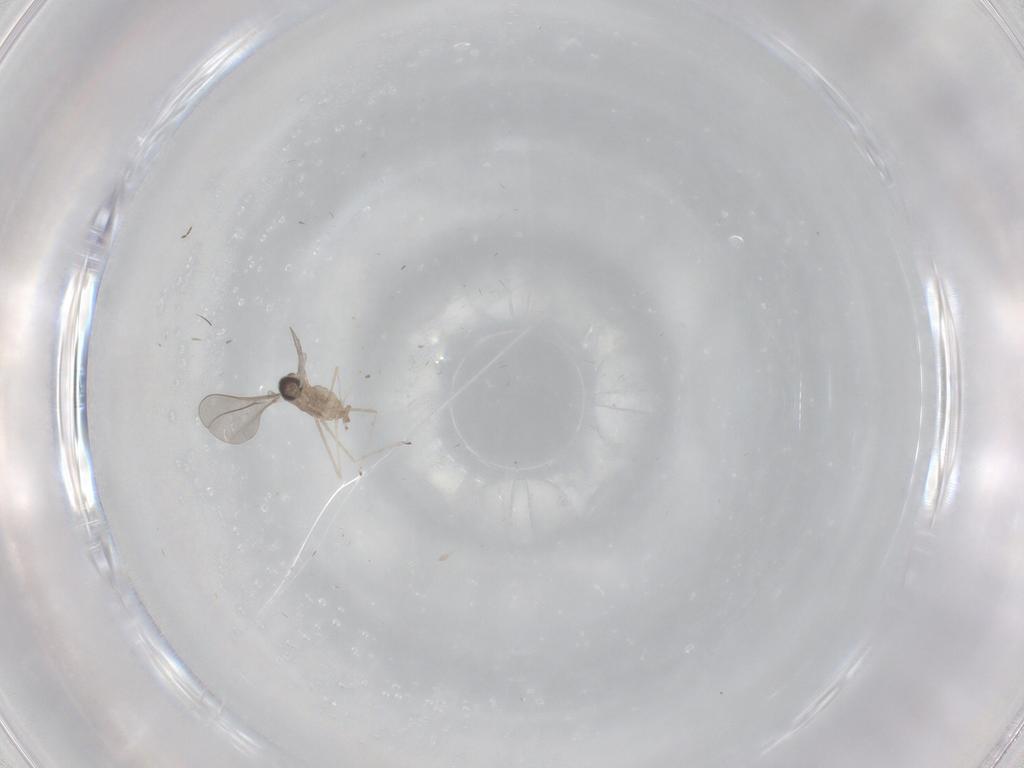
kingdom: Animalia
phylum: Arthropoda
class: Insecta
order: Diptera
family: Cecidomyiidae
